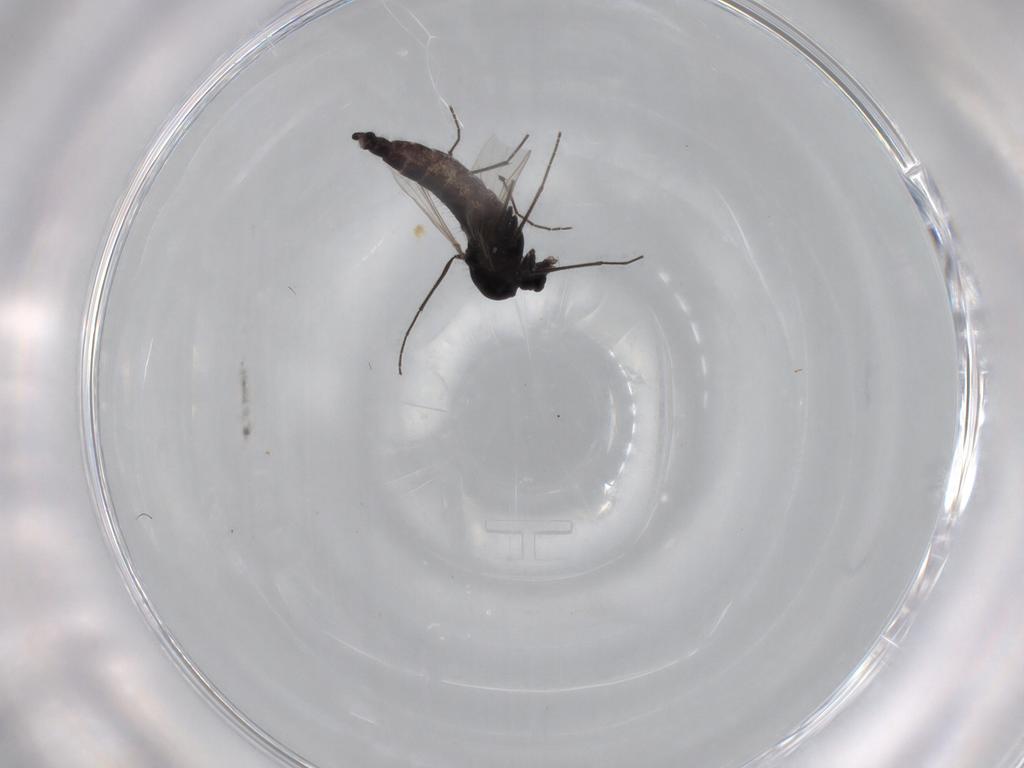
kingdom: Animalia
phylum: Arthropoda
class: Insecta
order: Diptera
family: Chironomidae
